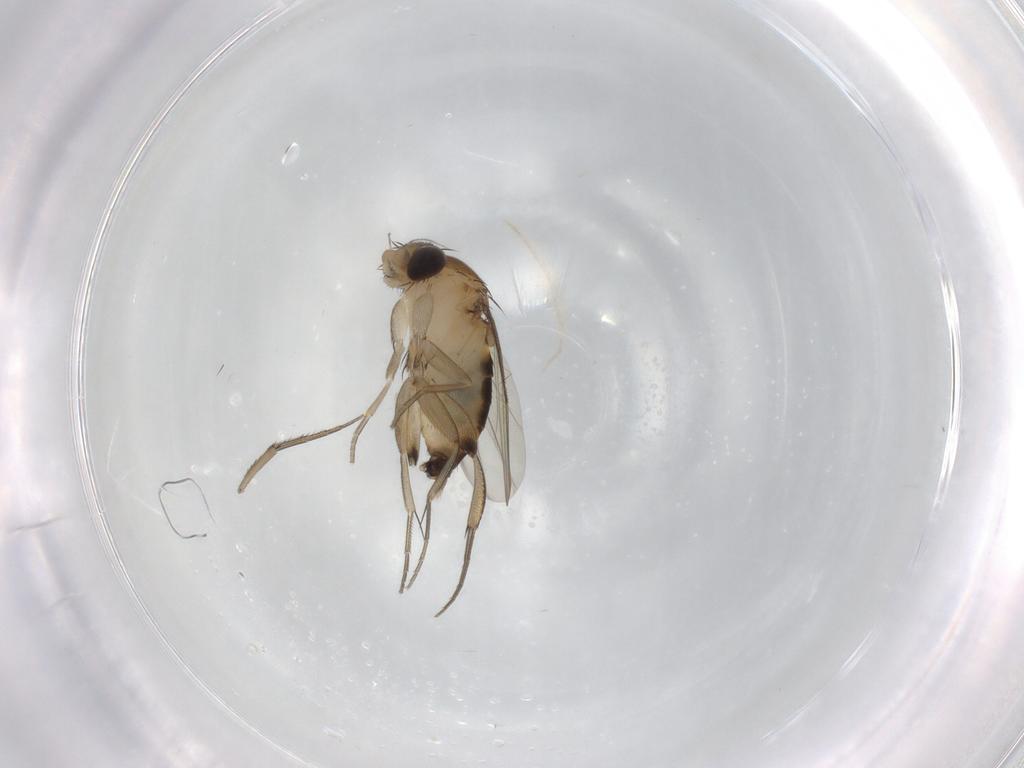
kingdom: Animalia
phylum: Arthropoda
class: Insecta
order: Diptera
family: Phoridae
